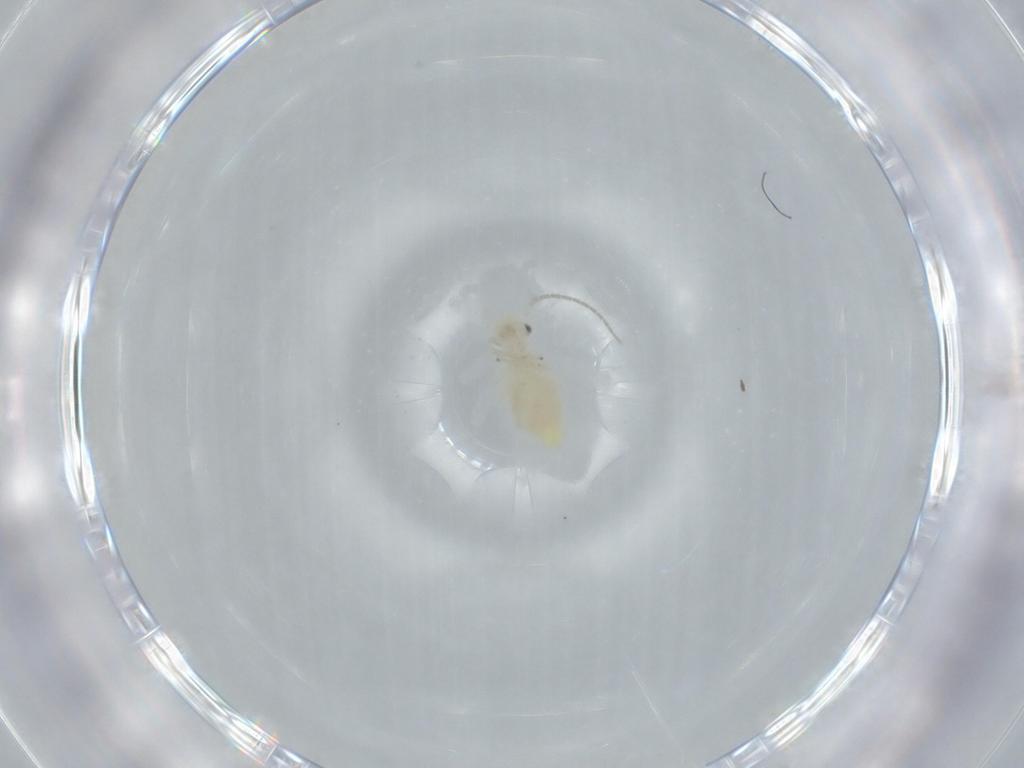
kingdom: Animalia
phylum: Arthropoda
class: Insecta
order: Psocodea
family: Caeciliusidae
